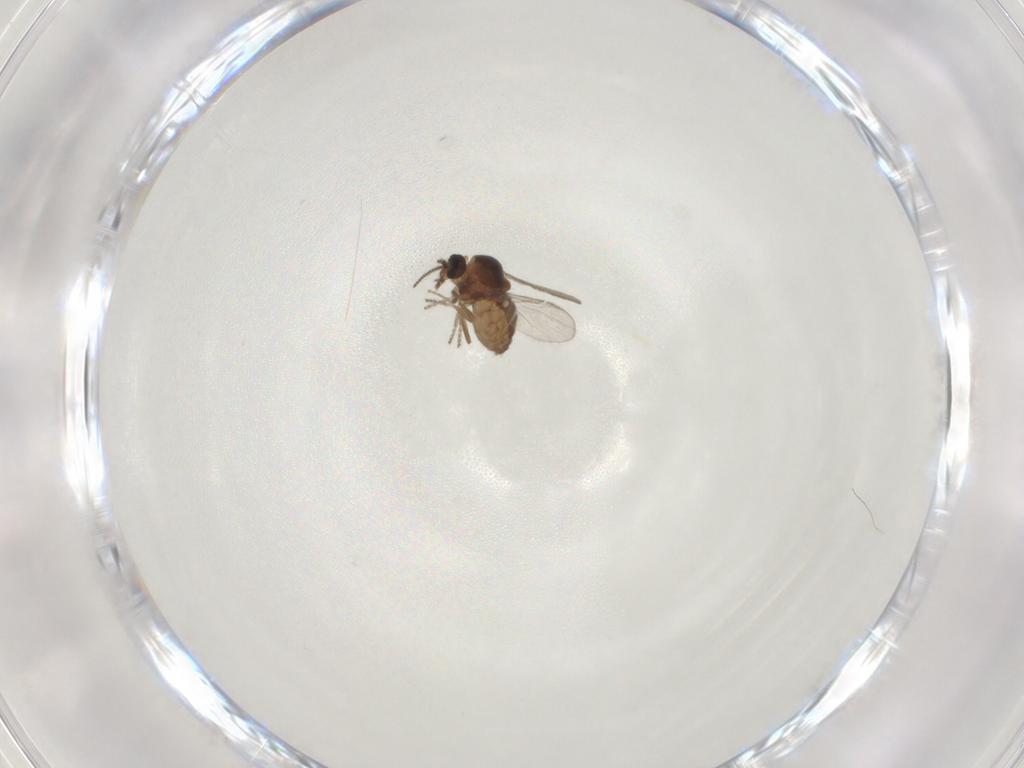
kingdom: Animalia
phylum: Arthropoda
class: Insecta
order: Diptera
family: Ceratopogonidae
